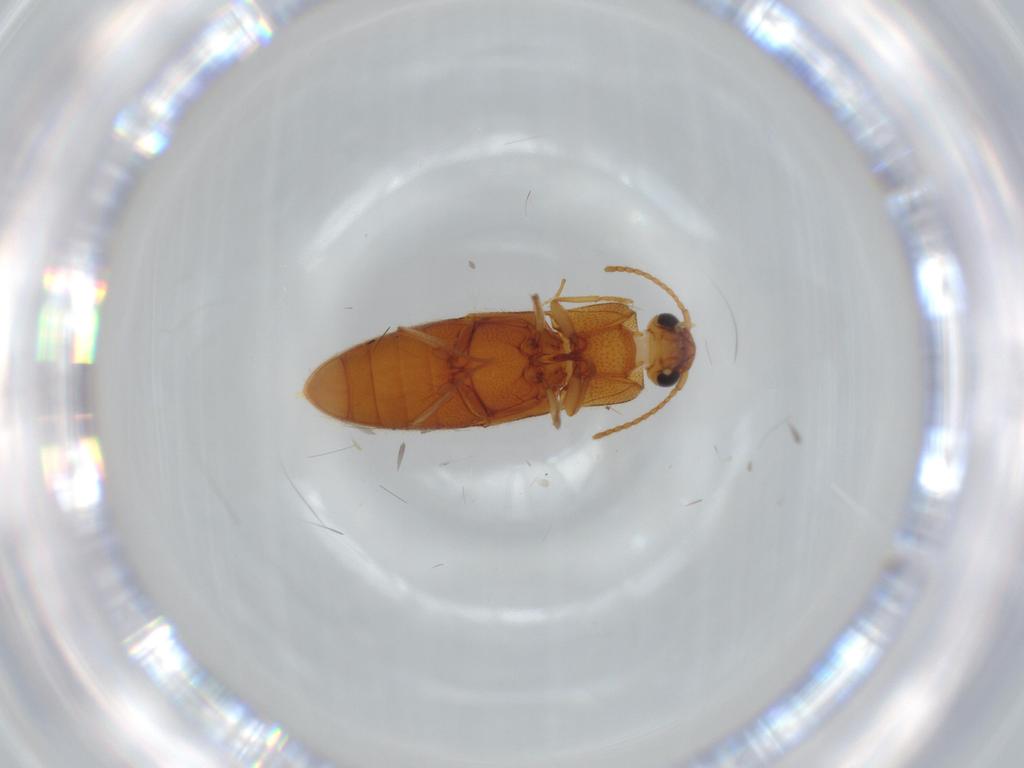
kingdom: Animalia
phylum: Arthropoda
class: Insecta
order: Coleoptera
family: Elateridae
